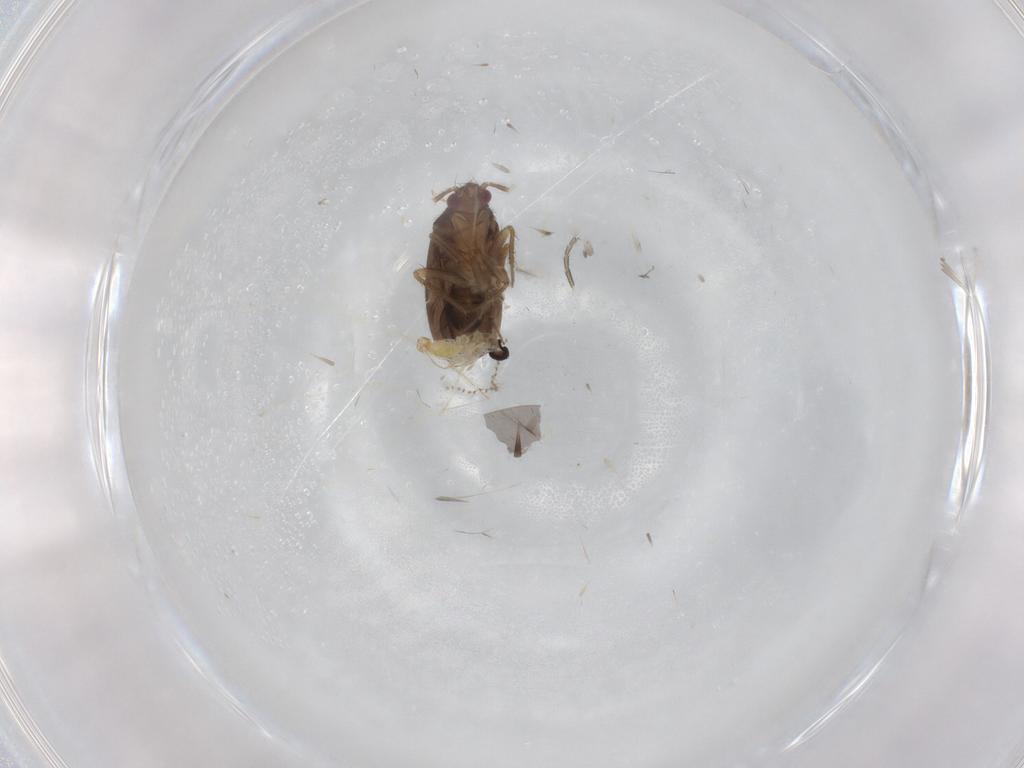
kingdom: Animalia
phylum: Arthropoda
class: Insecta
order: Hemiptera
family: Ceratocombidae
